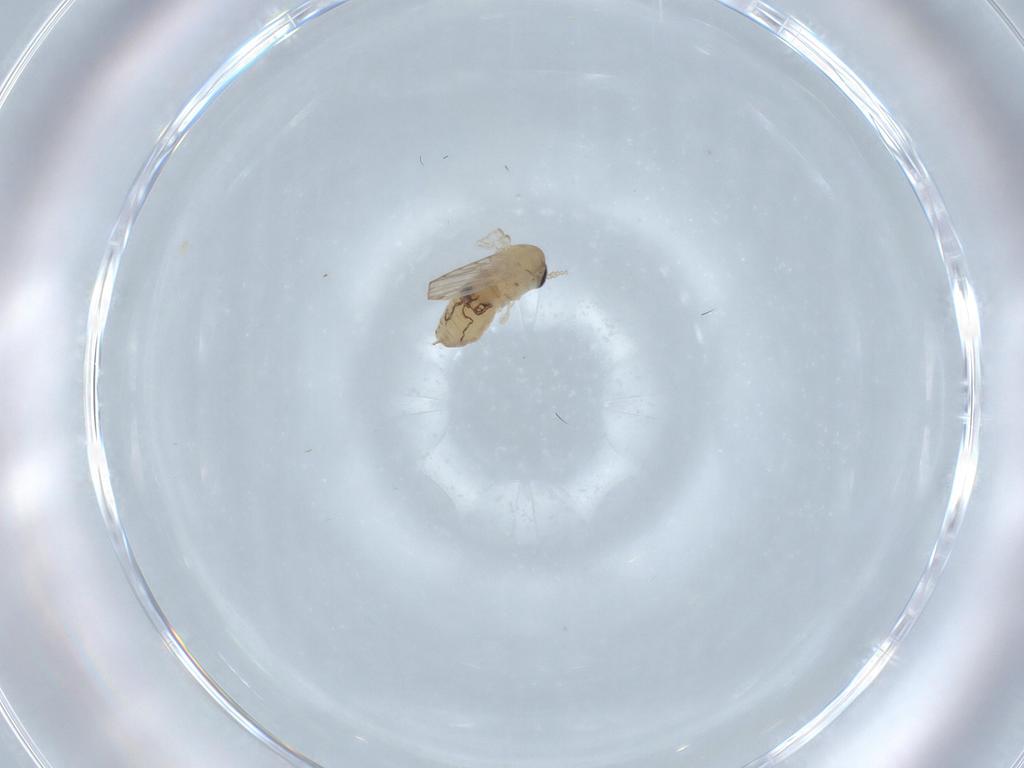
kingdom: Animalia
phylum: Arthropoda
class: Insecta
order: Diptera
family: Psychodidae
